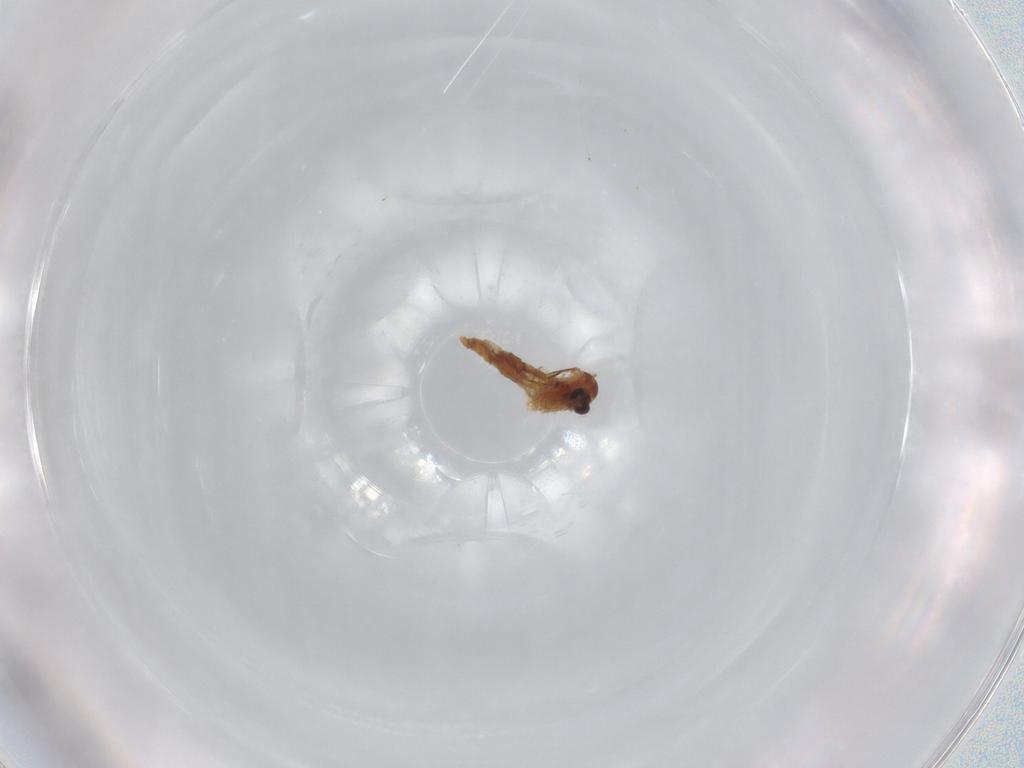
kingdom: Animalia
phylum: Arthropoda
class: Insecta
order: Diptera
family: Cecidomyiidae
